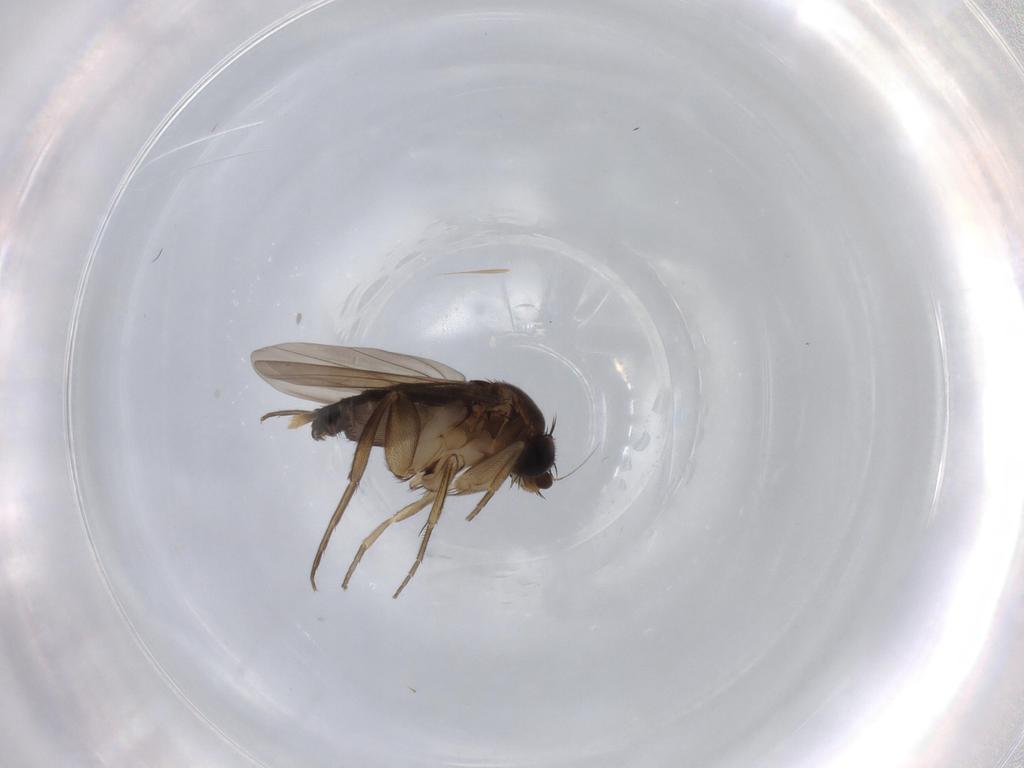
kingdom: Animalia
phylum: Arthropoda
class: Insecta
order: Diptera
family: Phoridae
